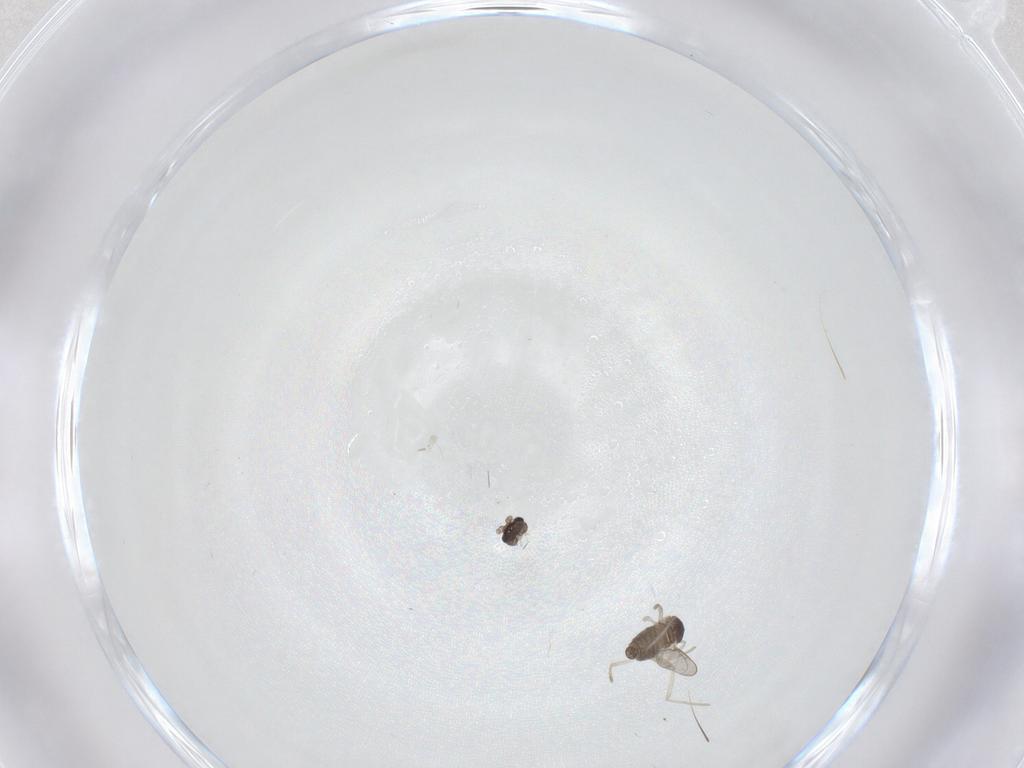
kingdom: Animalia
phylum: Arthropoda
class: Insecta
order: Diptera
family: Cecidomyiidae
